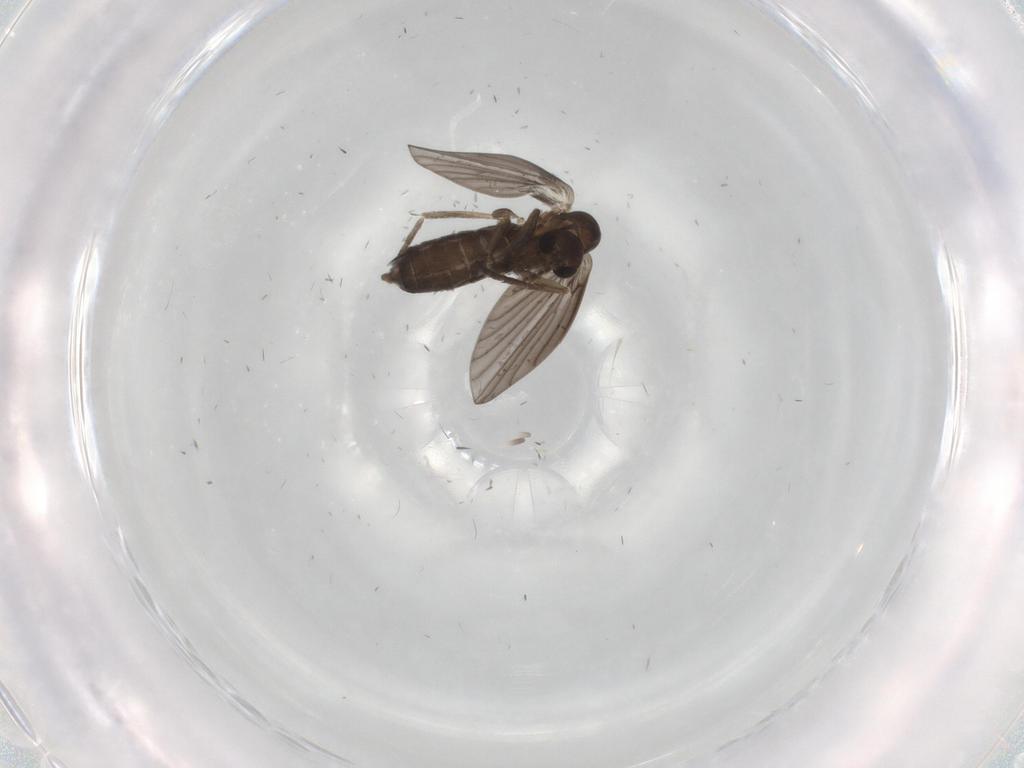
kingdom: Animalia
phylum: Arthropoda
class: Insecta
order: Diptera
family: Cecidomyiidae
